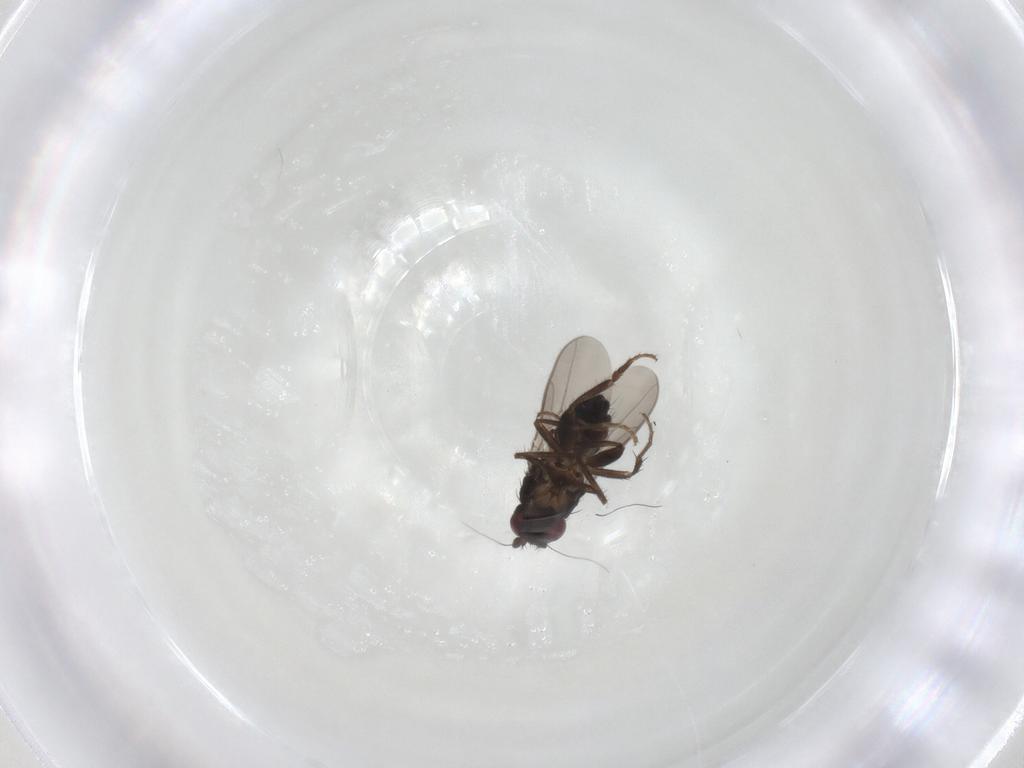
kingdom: Animalia
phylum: Arthropoda
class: Insecta
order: Diptera
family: Sphaeroceridae
